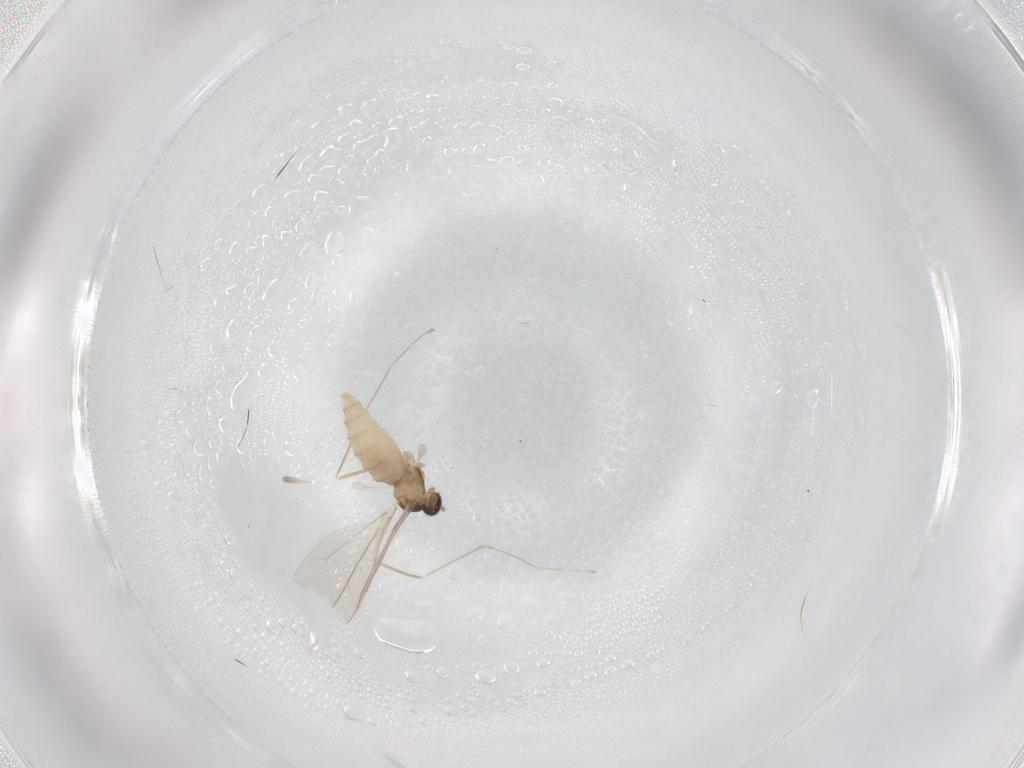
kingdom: Animalia
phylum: Arthropoda
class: Insecta
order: Diptera
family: Cecidomyiidae
